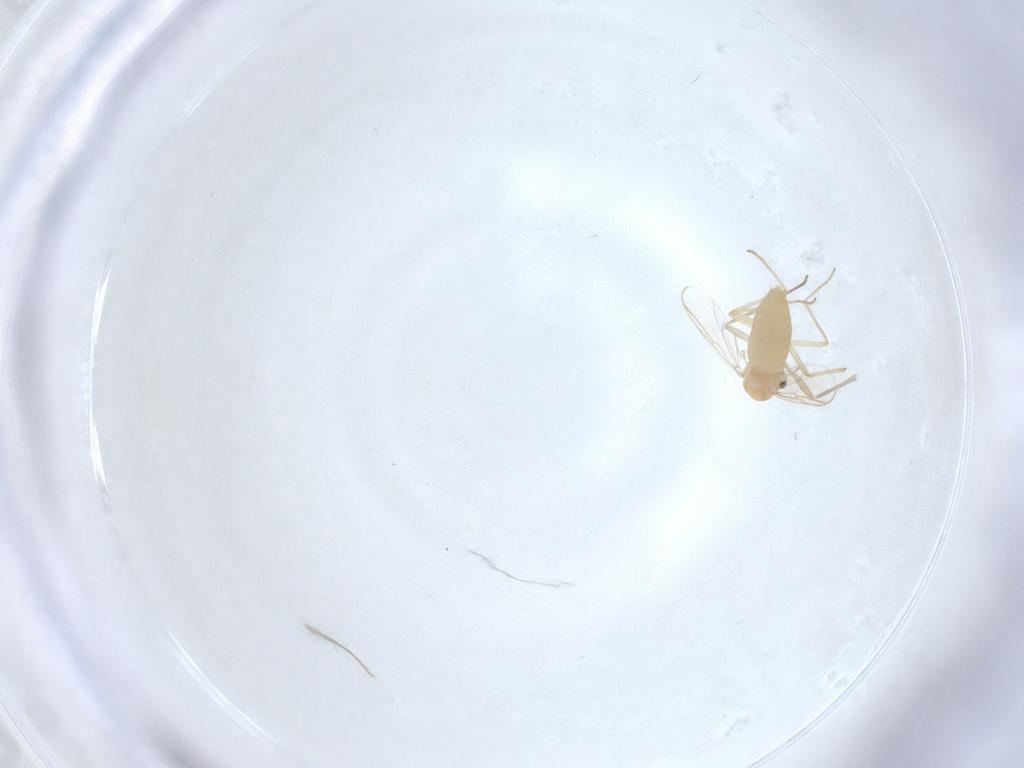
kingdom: Animalia
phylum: Arthropoda
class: Insecta
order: Diptera
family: Chironomidae
